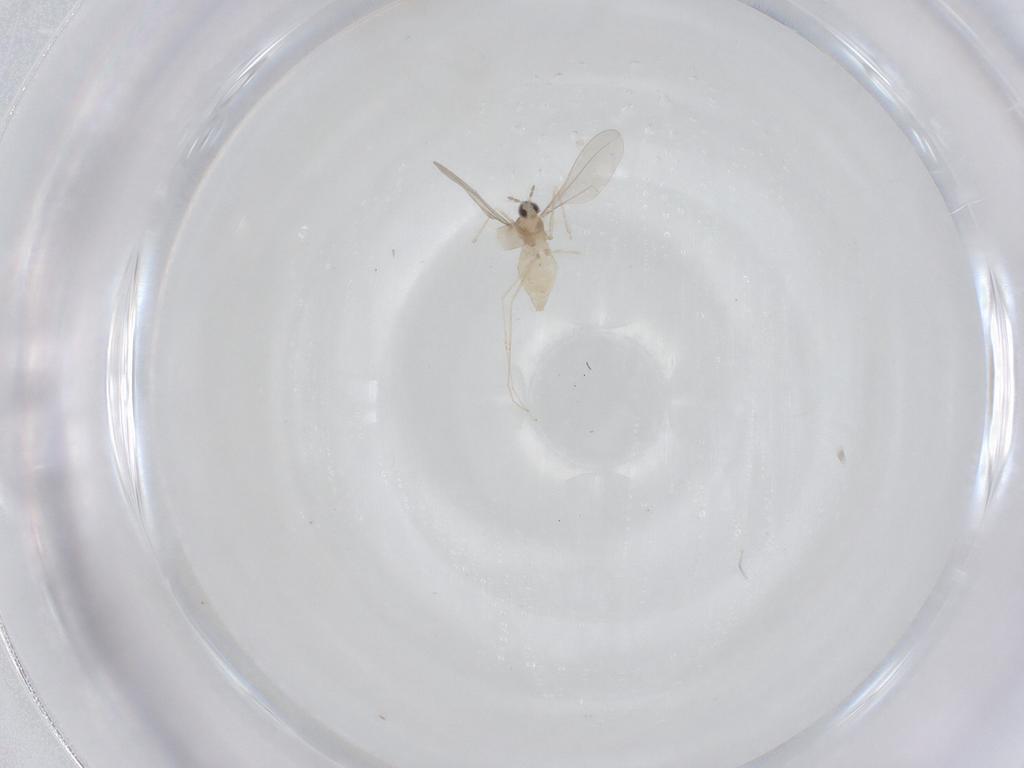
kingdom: Animalia
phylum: Arthropoda
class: Insecta
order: Diptera
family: Cecidomyiidae
